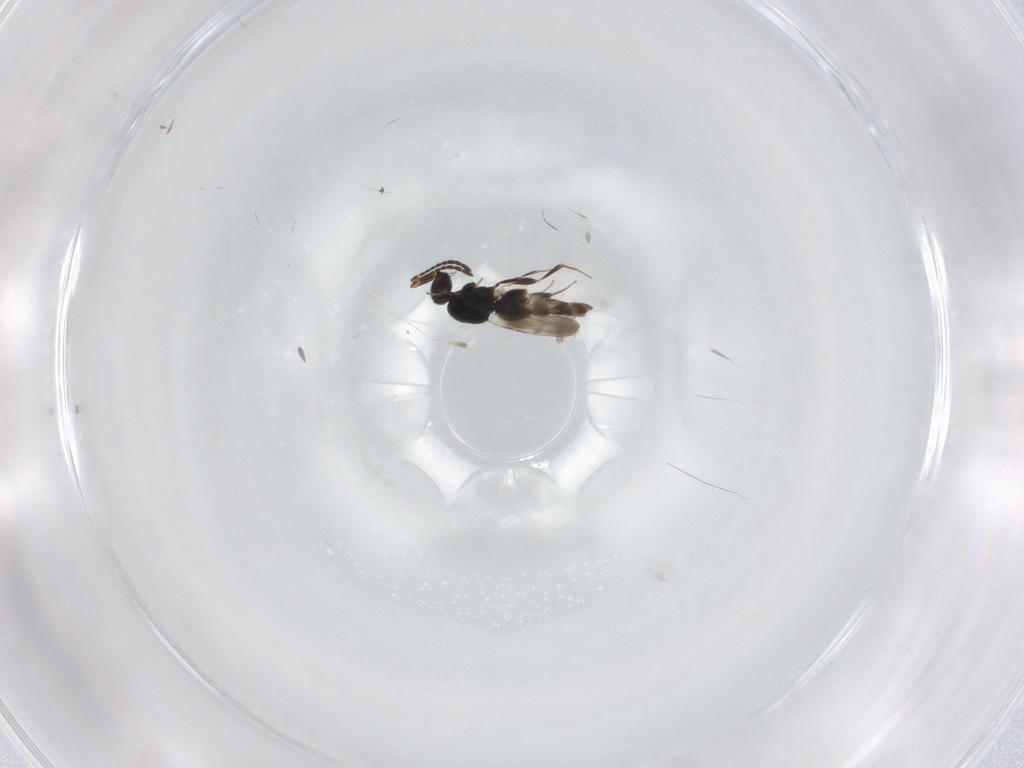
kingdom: Animalia
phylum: Arthropoda
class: Insecta
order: Hymenoptera
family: Ceraphronidae
